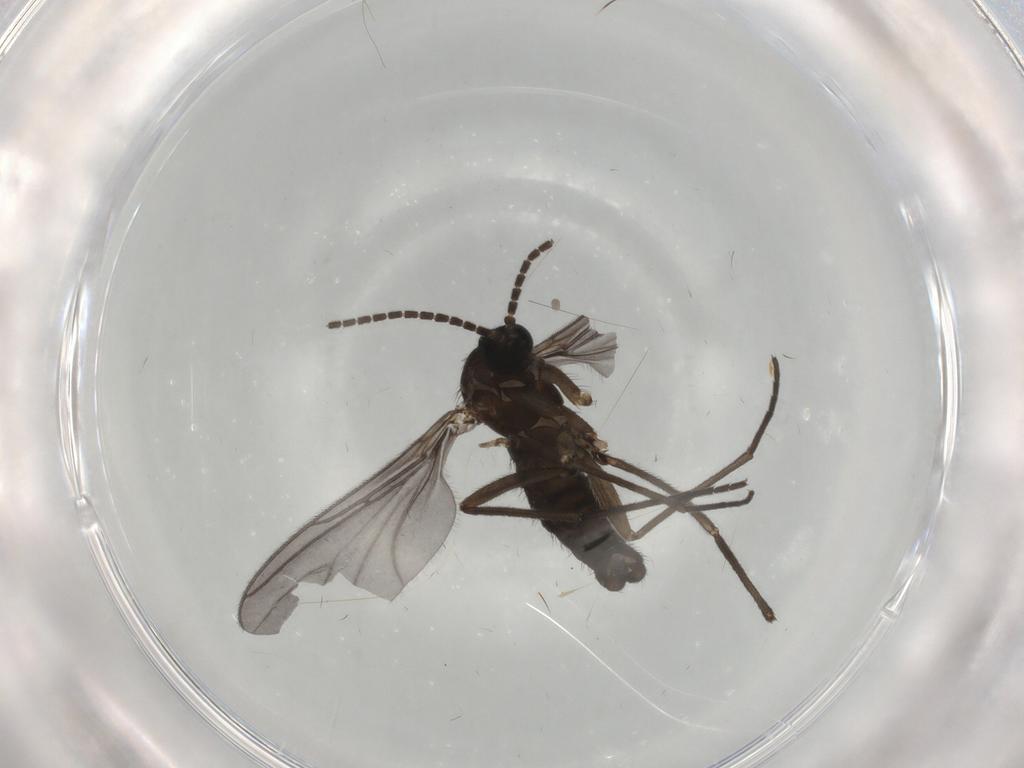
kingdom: Animalia
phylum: Arthropoda
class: Insecta
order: Diptera
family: Sciaridae
